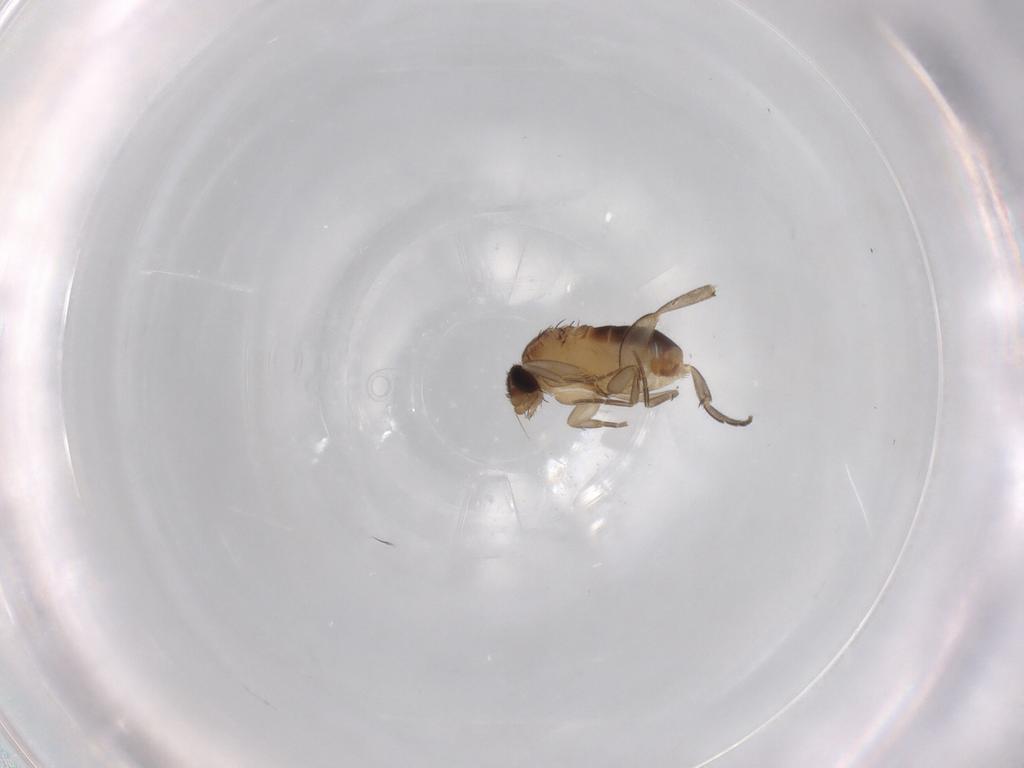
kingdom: Animalia
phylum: Arthropoda
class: Insecta
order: Diptera
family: Phoridae
